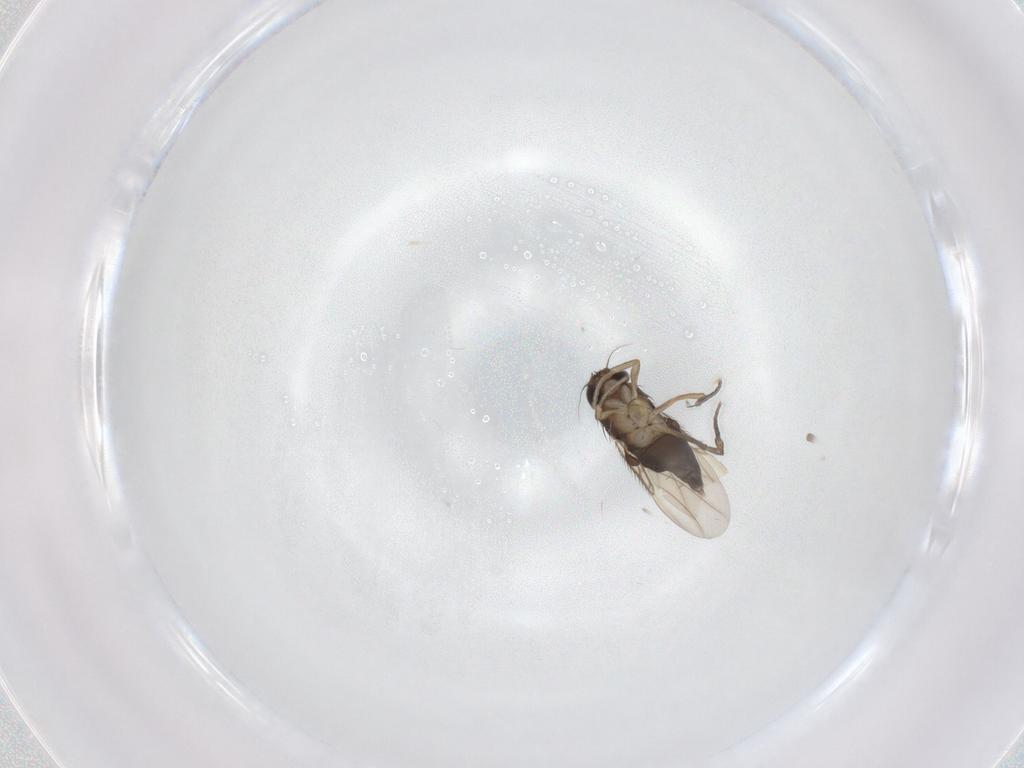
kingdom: Animalia
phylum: Arthropoda
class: Insecta
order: Diptera
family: Phoridae
